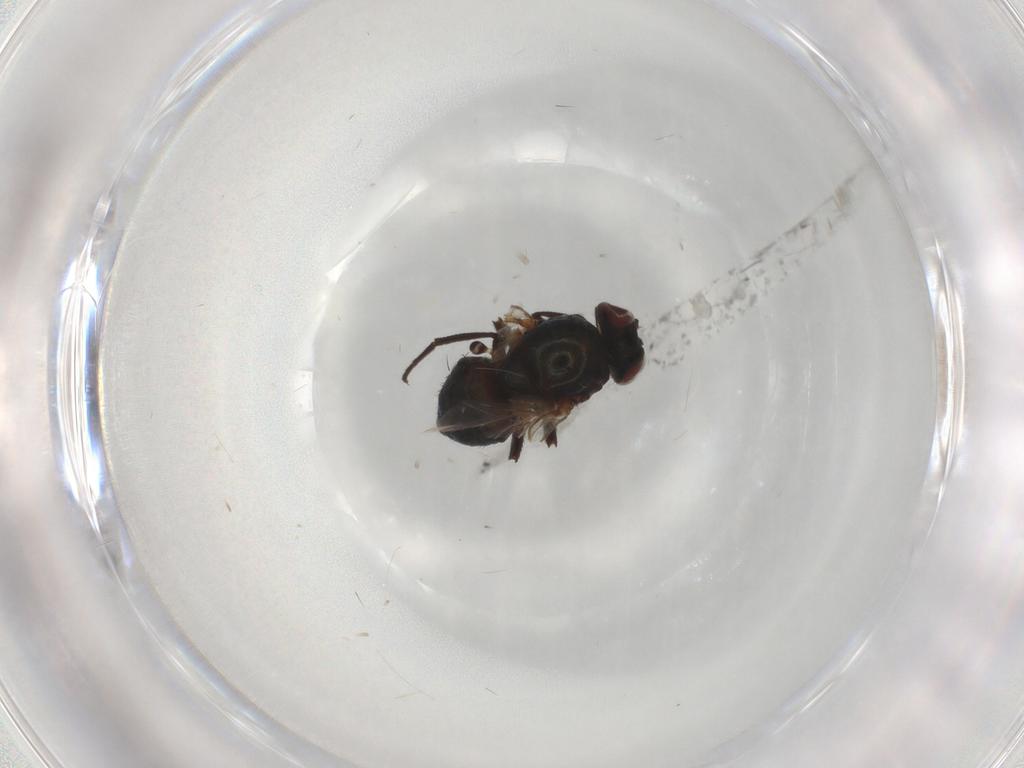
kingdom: Animalia
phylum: Arthropoda
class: Insecta
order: Diptera
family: Agromyzidae
